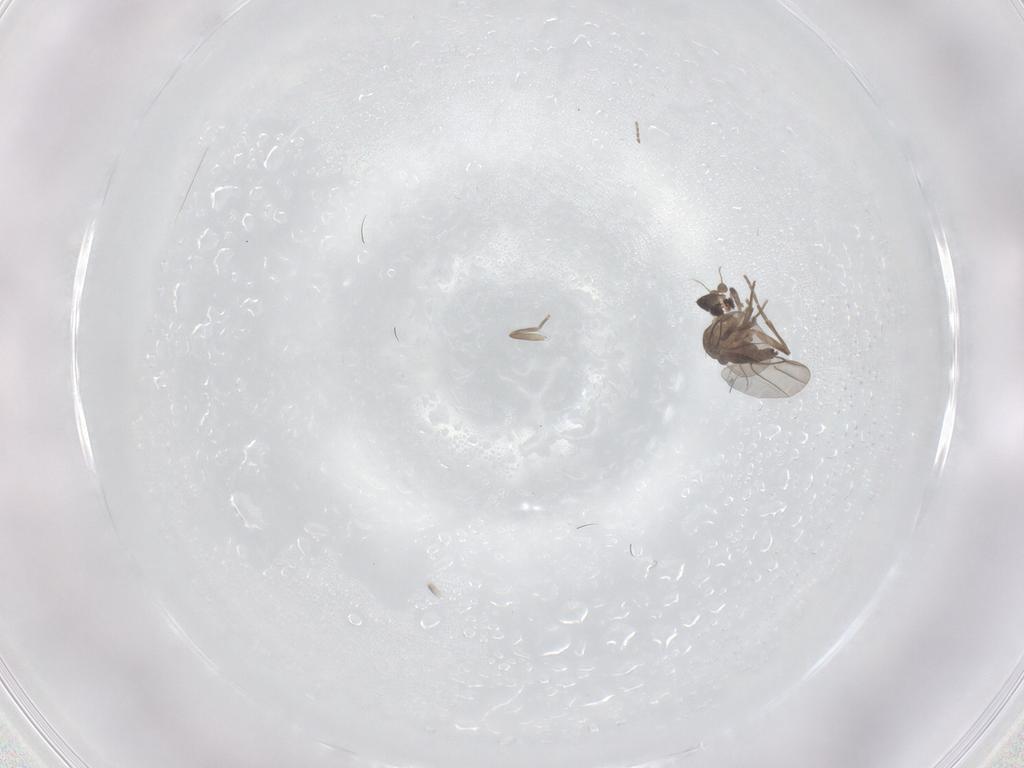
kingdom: Animalia
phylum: Arthropoda
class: Insecta
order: Diptera
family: Sciaridae
